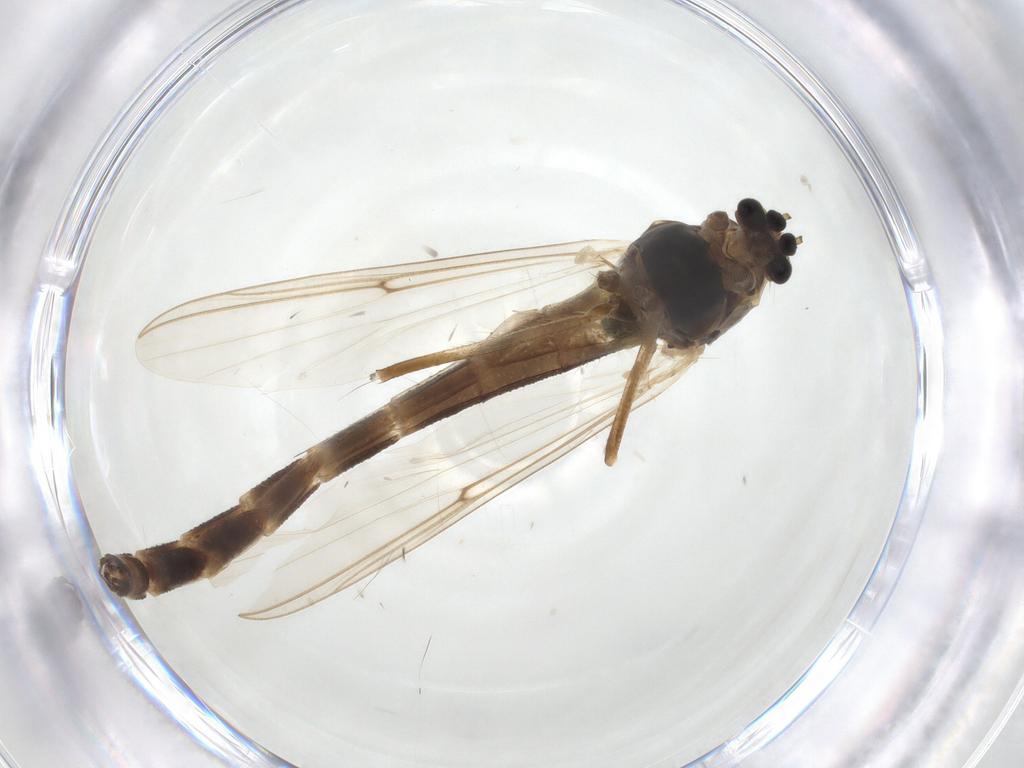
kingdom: Animalia
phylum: Arthropoda
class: Insecta
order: Diptera
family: Chironomidae
